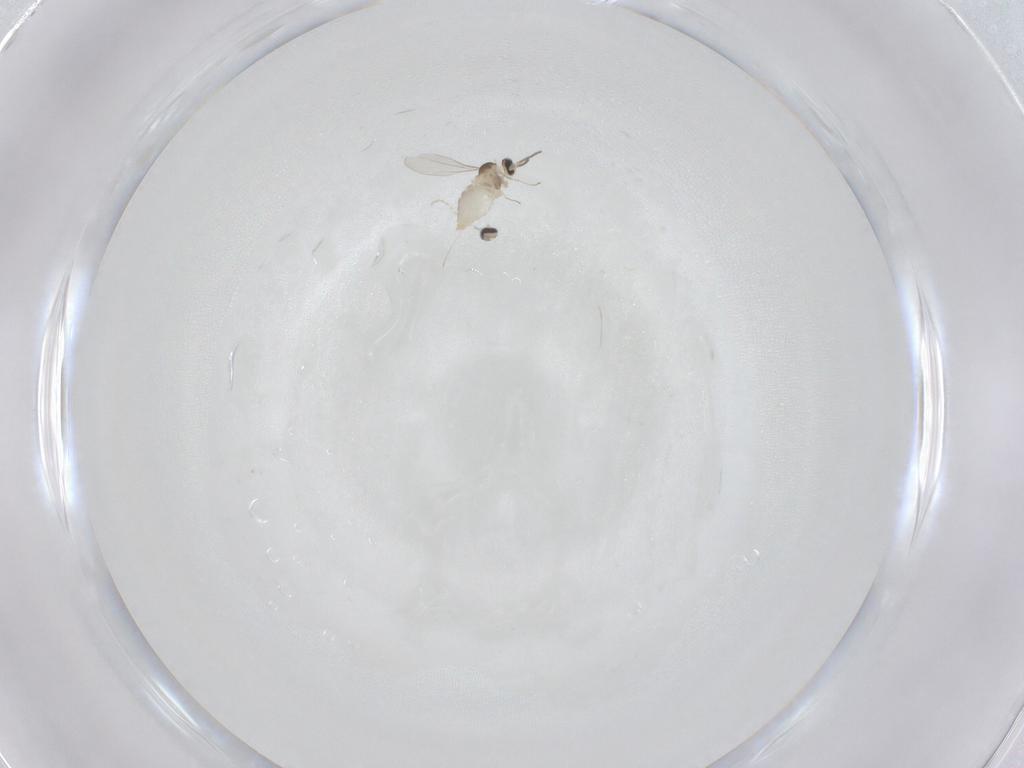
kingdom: Animalia
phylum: Arthropoda
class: Insecta
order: Diptera
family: Cecidomyiidae
